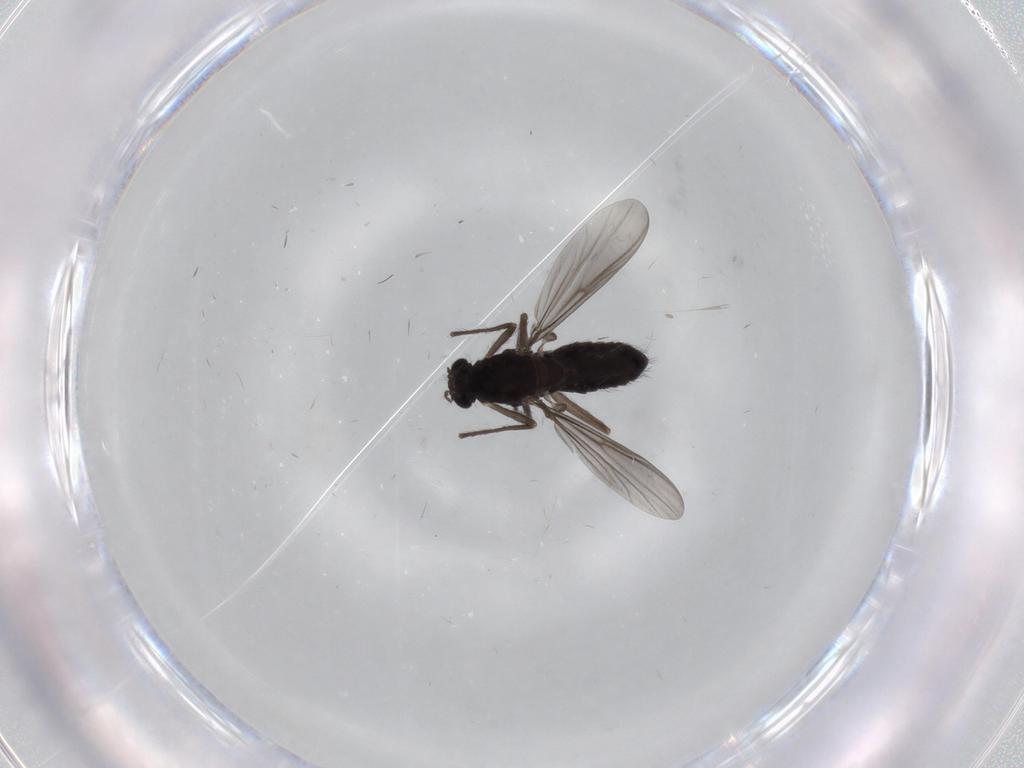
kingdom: Animalia
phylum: Arthropoda
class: Insecta
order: Diptera
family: Chironomidae
